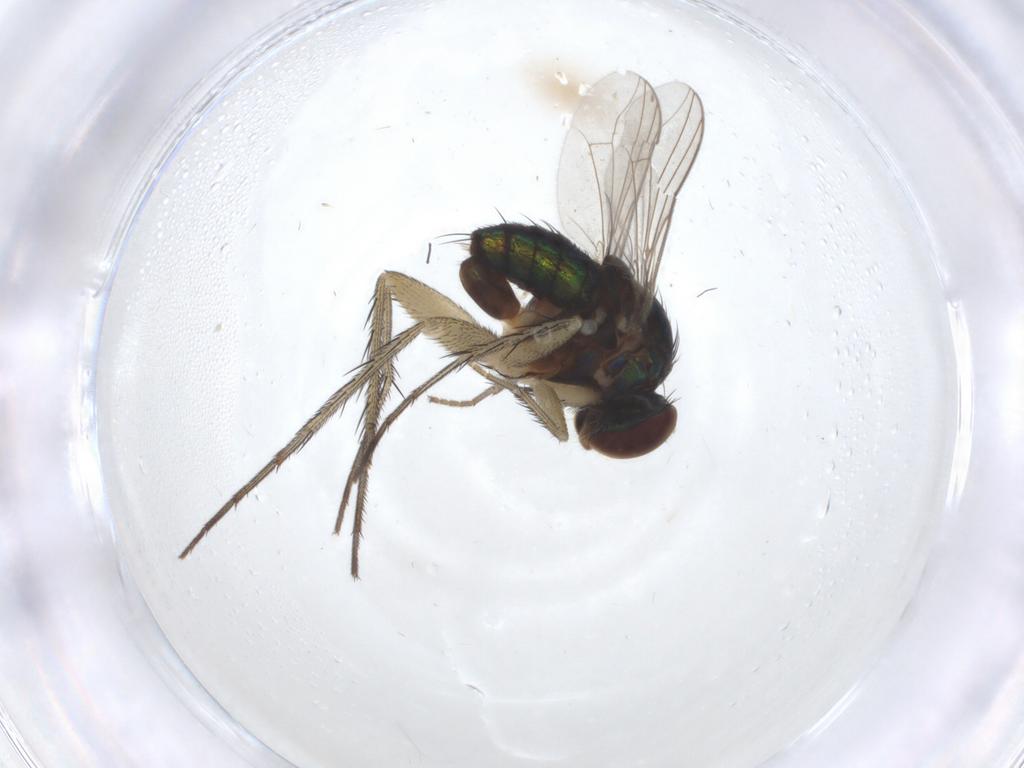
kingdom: Animalia
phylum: Arthropoda
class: Insecta
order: Diptera
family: Dolichopodidae
